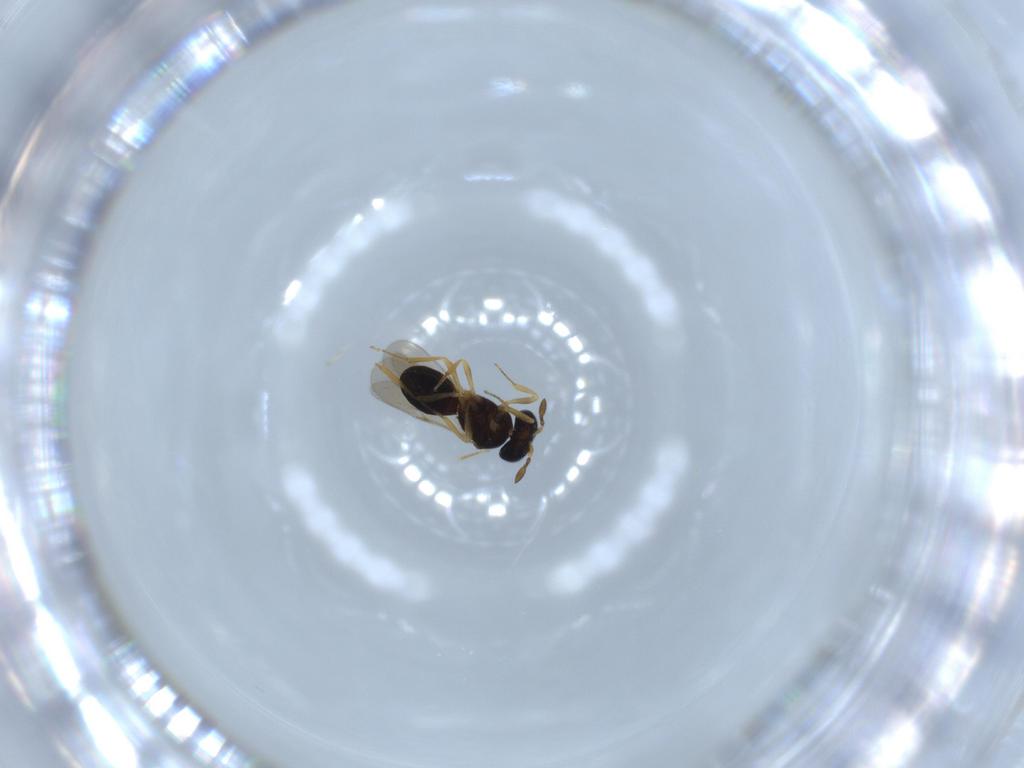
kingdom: Animalia
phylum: Arthropoda
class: Insecta
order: Hymenoptera
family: Scelionidae
